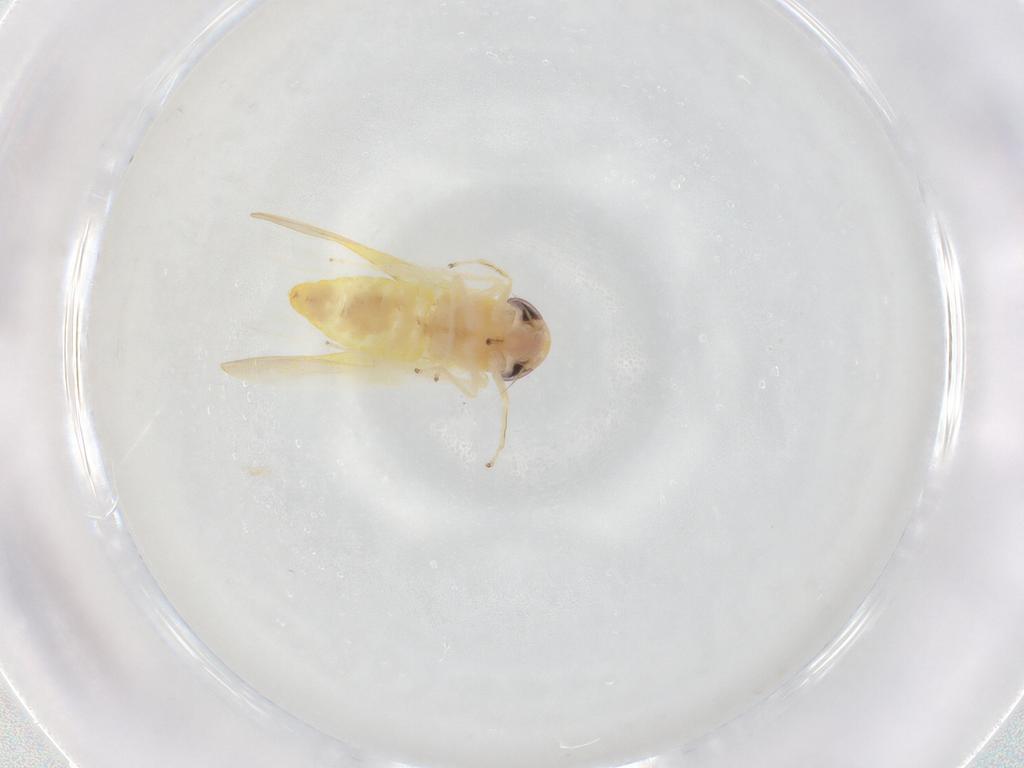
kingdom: Animalia
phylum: Arthropoda
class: Insecta
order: Hemiptera
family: Cicadellidae
